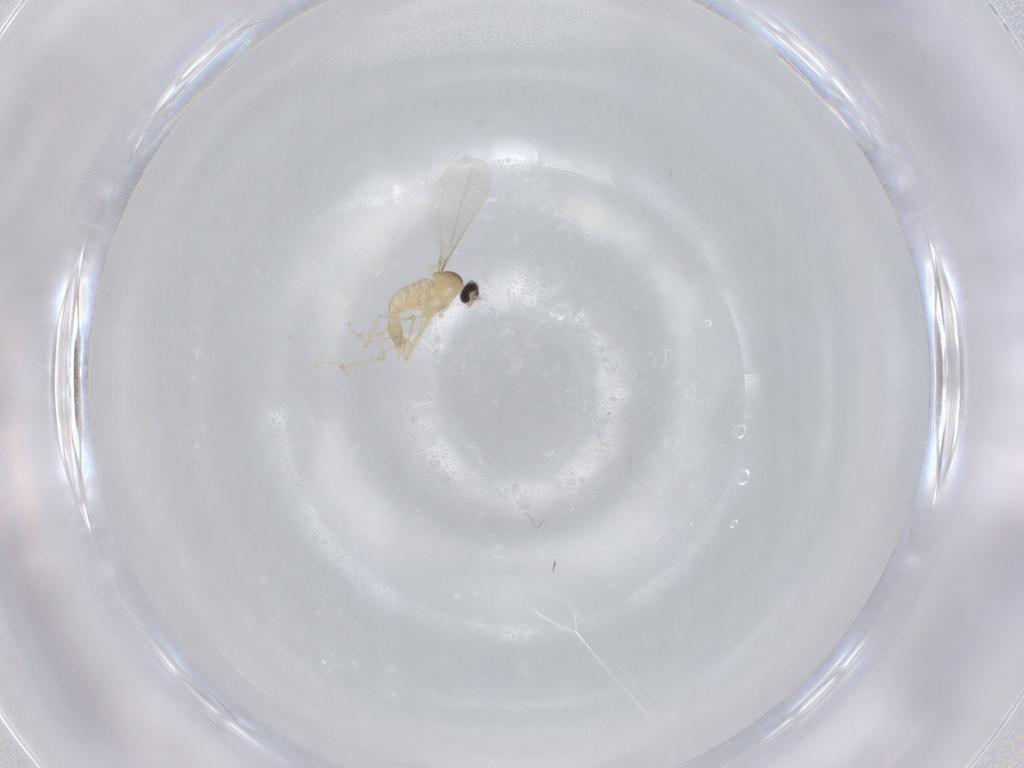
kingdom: Animalia
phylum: Arthropoda
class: Insecta
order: Diptera
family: Cecidomyiidae
